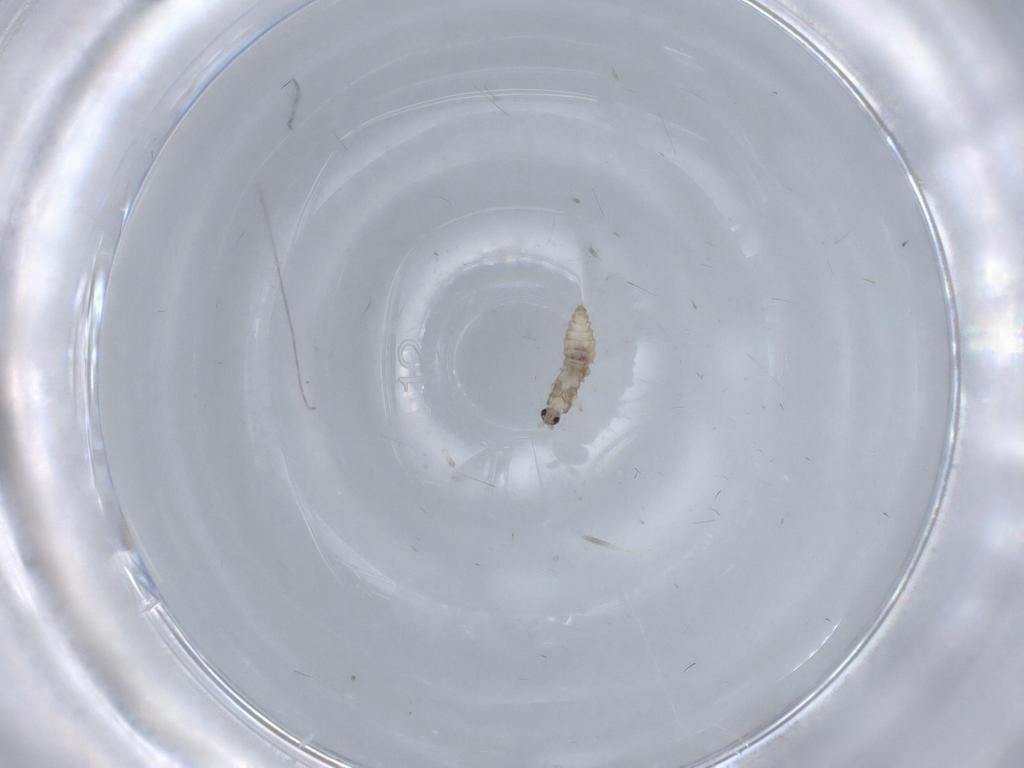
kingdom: Animalia
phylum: Arthropoda
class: Insecta
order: Diptera
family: Cecidomyiidae
